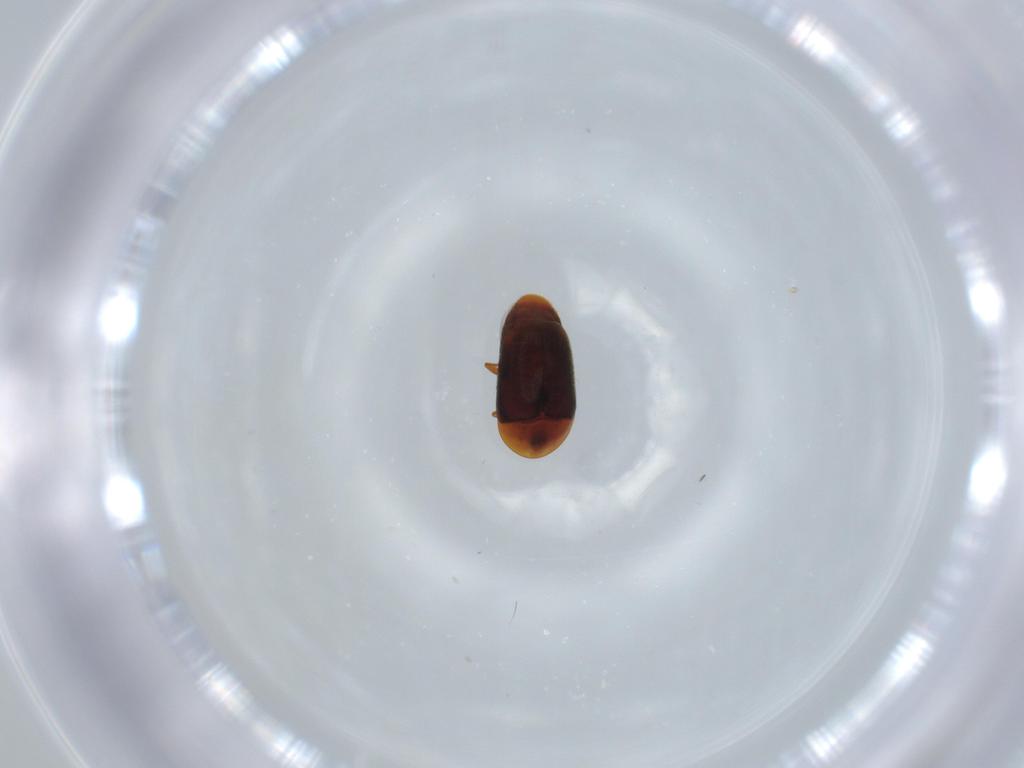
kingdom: Animalia
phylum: Arthropoda
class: Insecta
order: Coleoptera
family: Corylophidae
